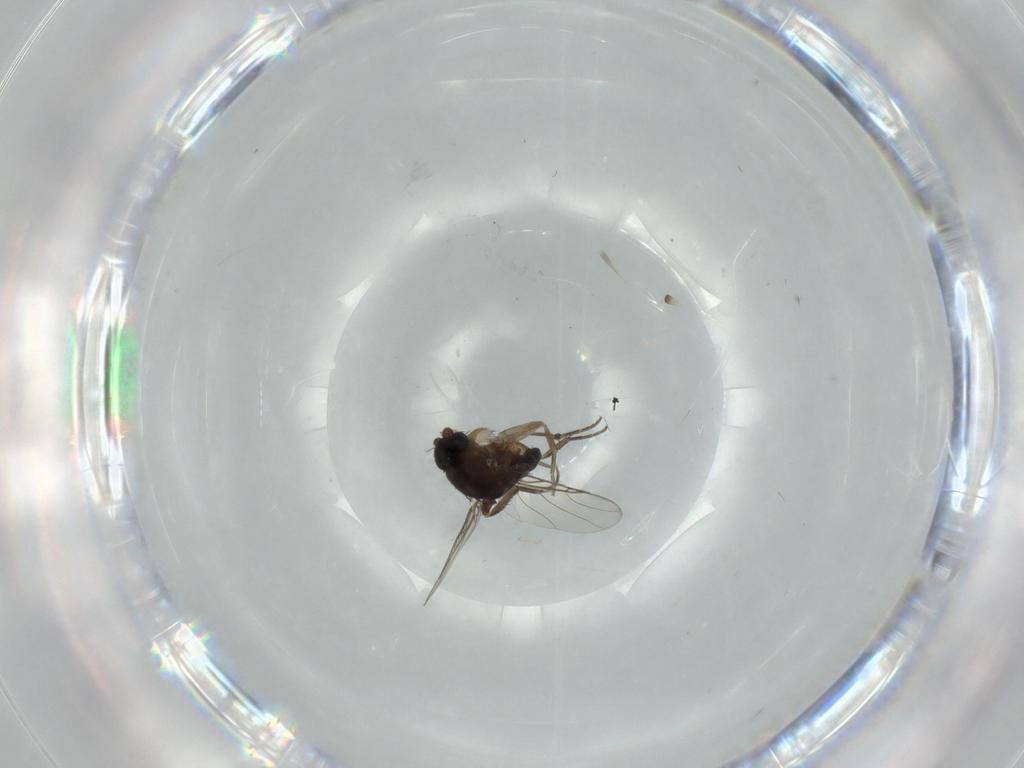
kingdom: Animalia
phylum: Arthropoda
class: Insecta
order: Diptera
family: Phoridae
